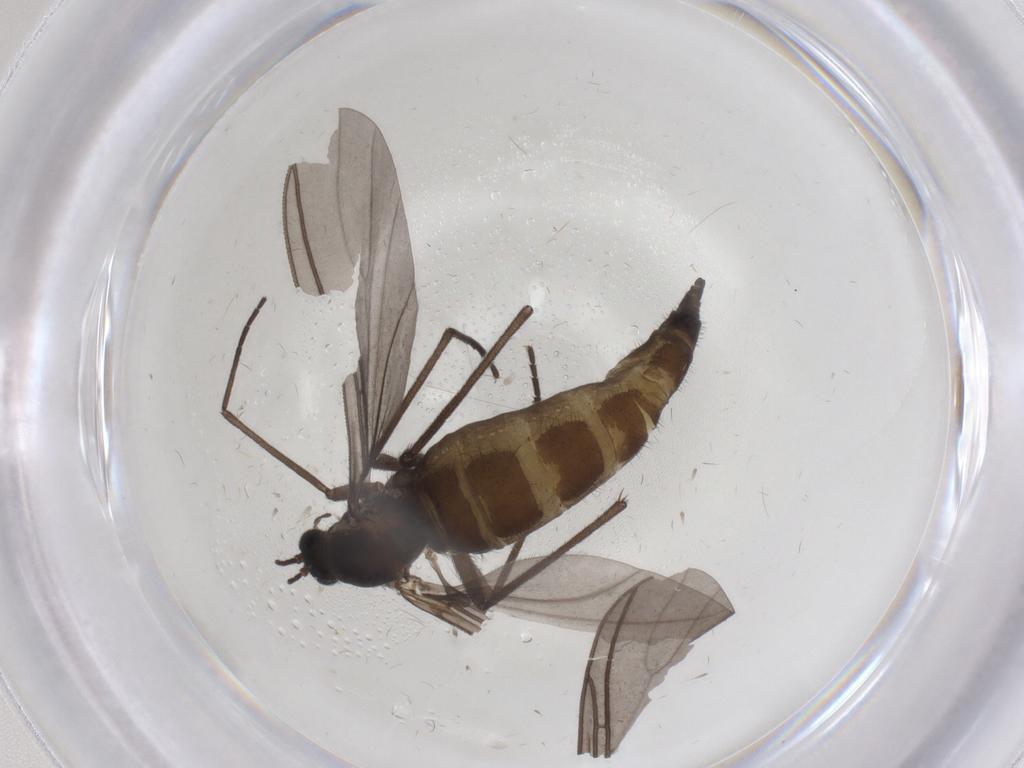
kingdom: Animalia
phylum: Arthropoda
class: Insecta
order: Diptera
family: Sciaridae
